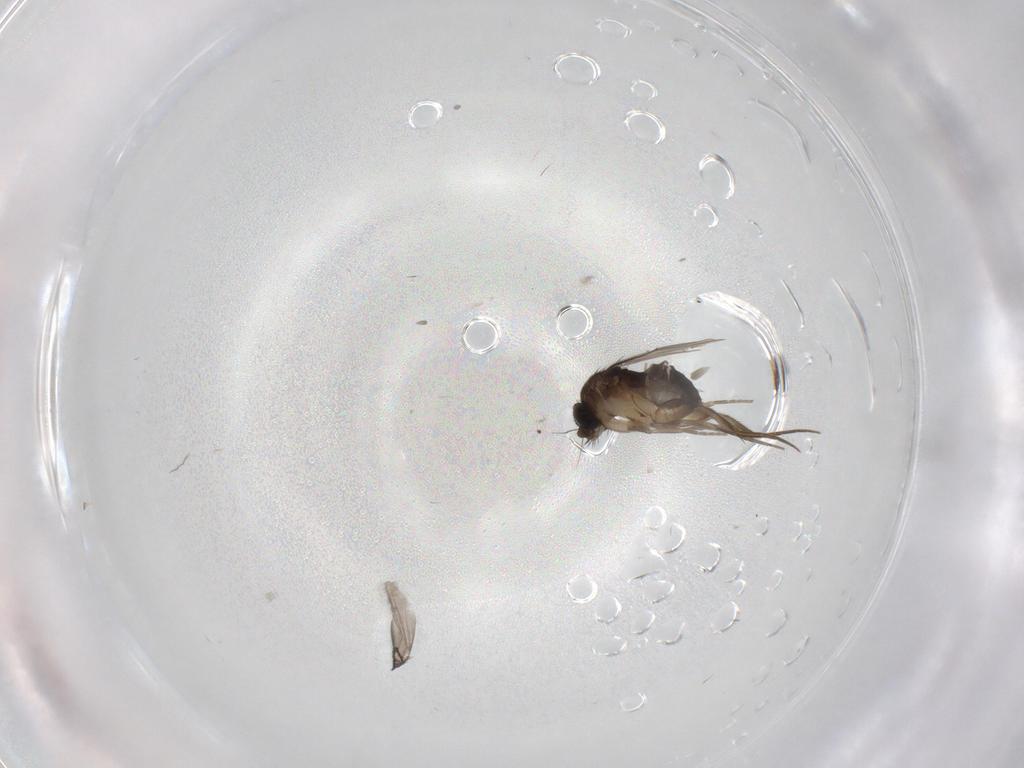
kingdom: Animalia
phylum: Arthropoda
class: Insecta
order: Diptera
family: Phoridae
